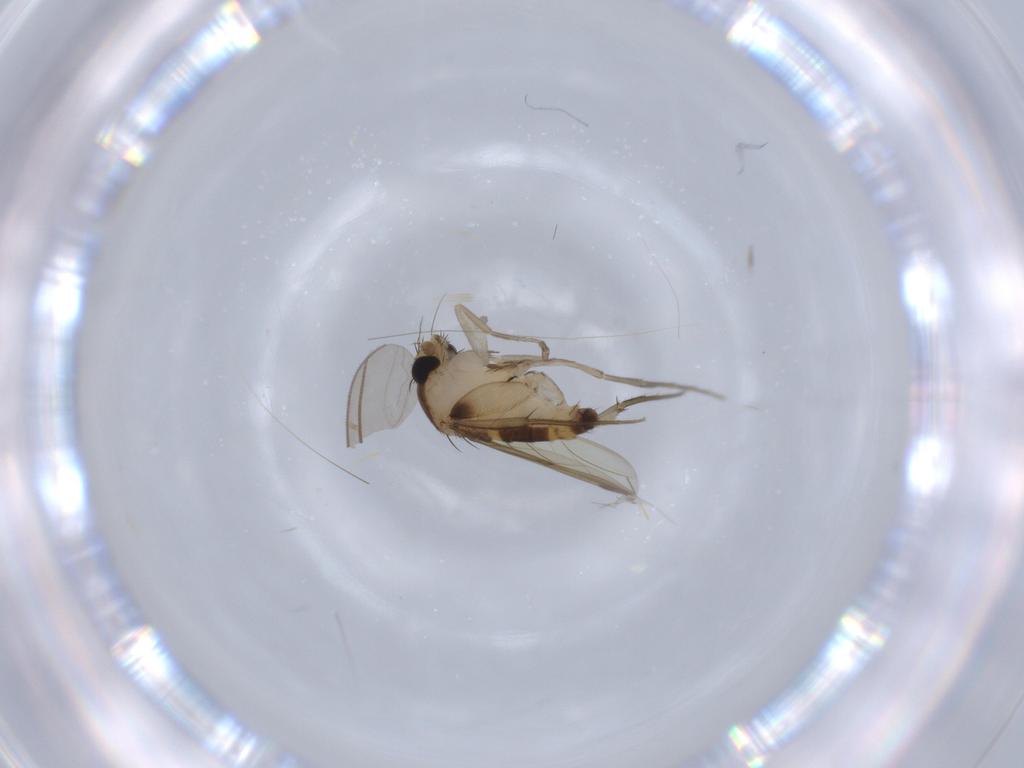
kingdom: Animalia
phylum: Arthropoda
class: Insecta
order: Diptera
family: Phoridae
